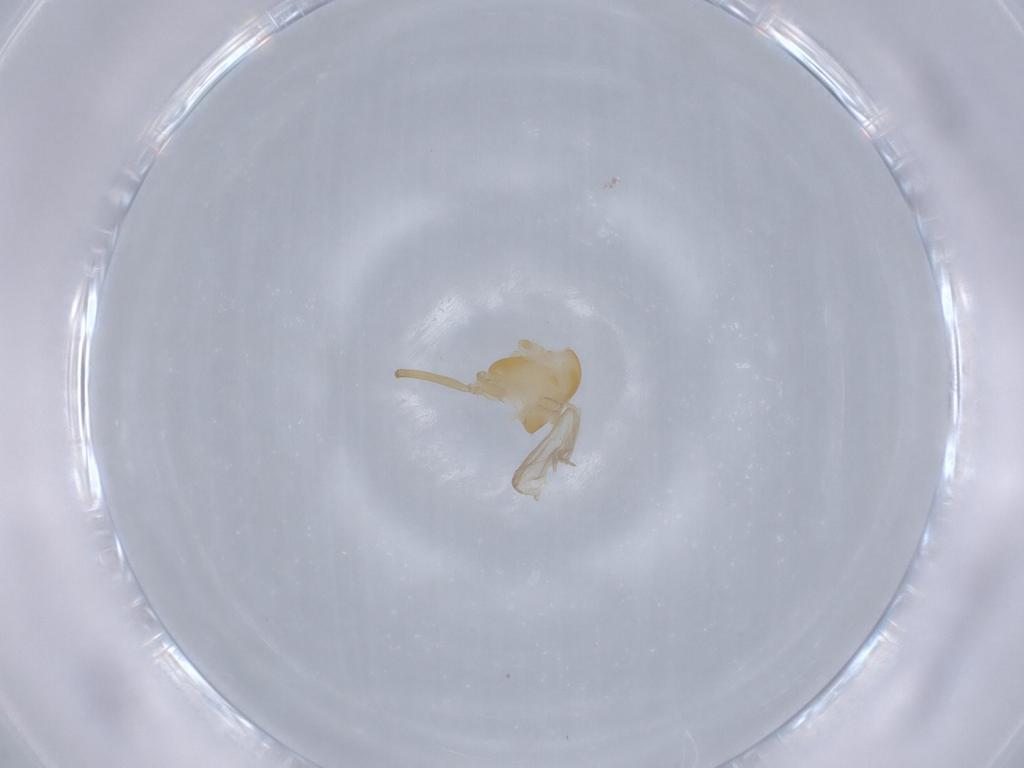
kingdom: Animalia
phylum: Arthropoda
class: Insecta
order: Diptera
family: Chironomidae
